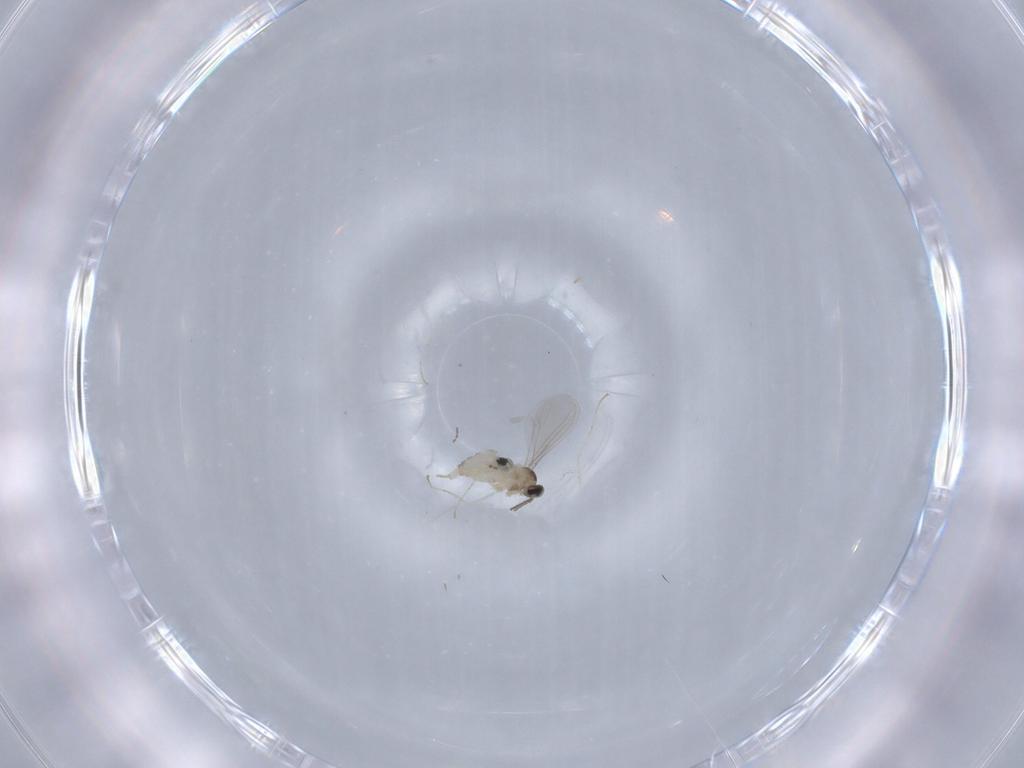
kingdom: Animalia
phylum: Arthropoda
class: Insecta
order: Diptera
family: Cecidomyiidae
